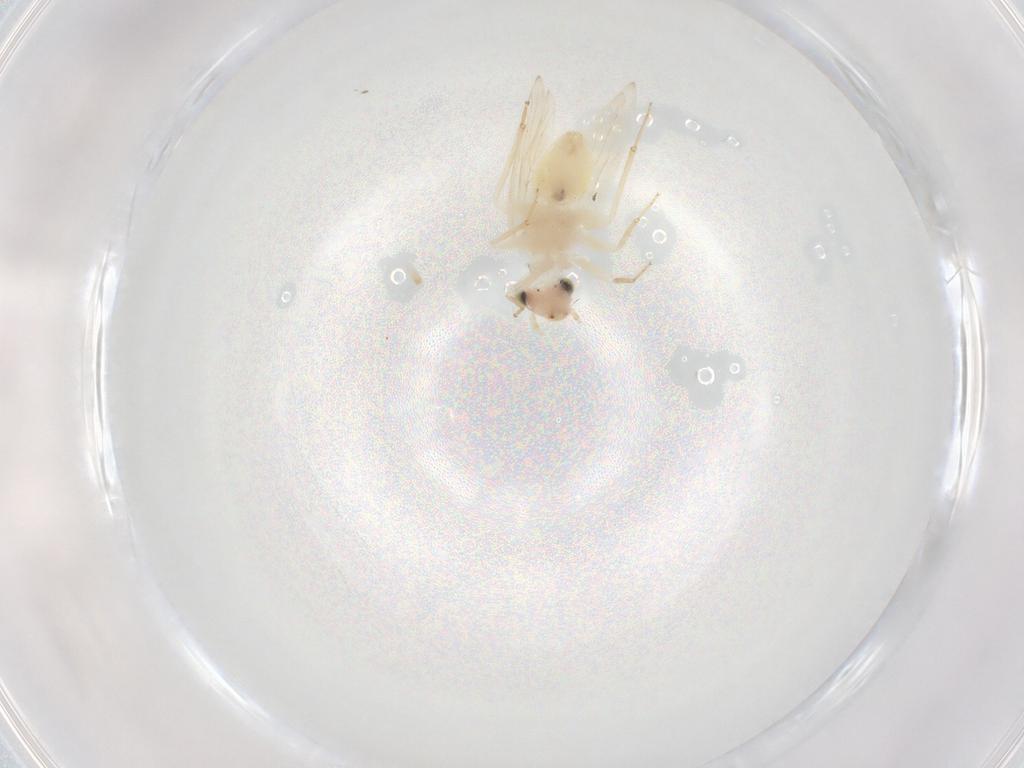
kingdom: Animalia
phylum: Arthropoda
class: Insecta
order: Psocodea
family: Lepidopsocidae
